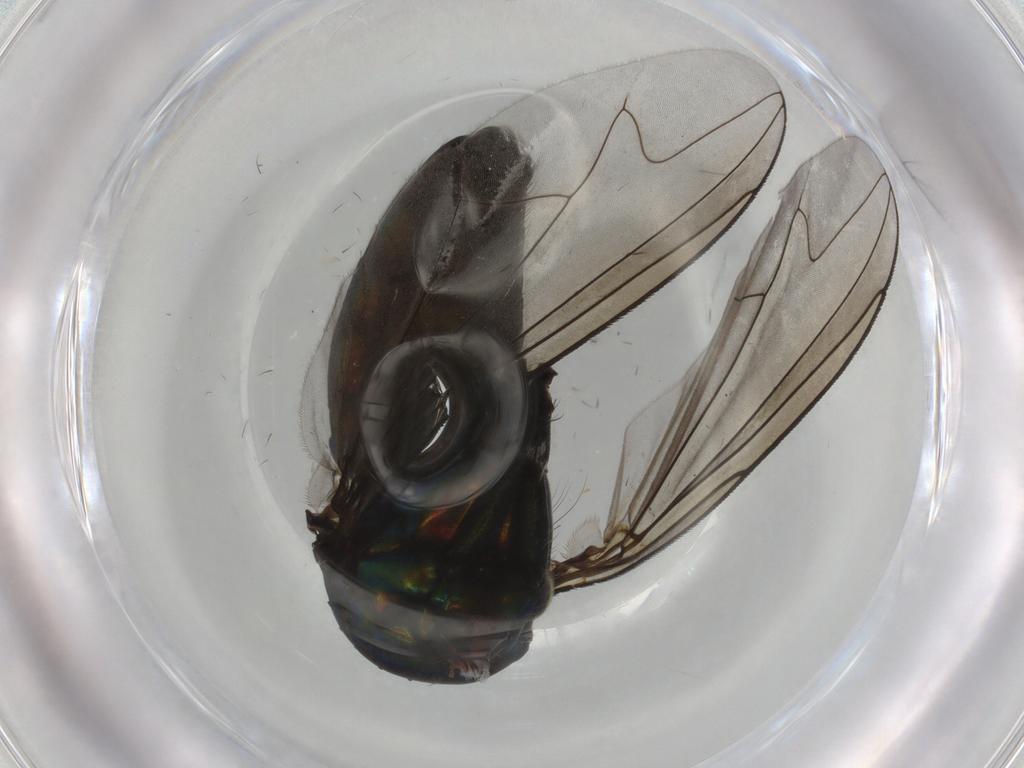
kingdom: Animalia
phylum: Arthropoda
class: Insecta
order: Diptera
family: Dolichopodidae
